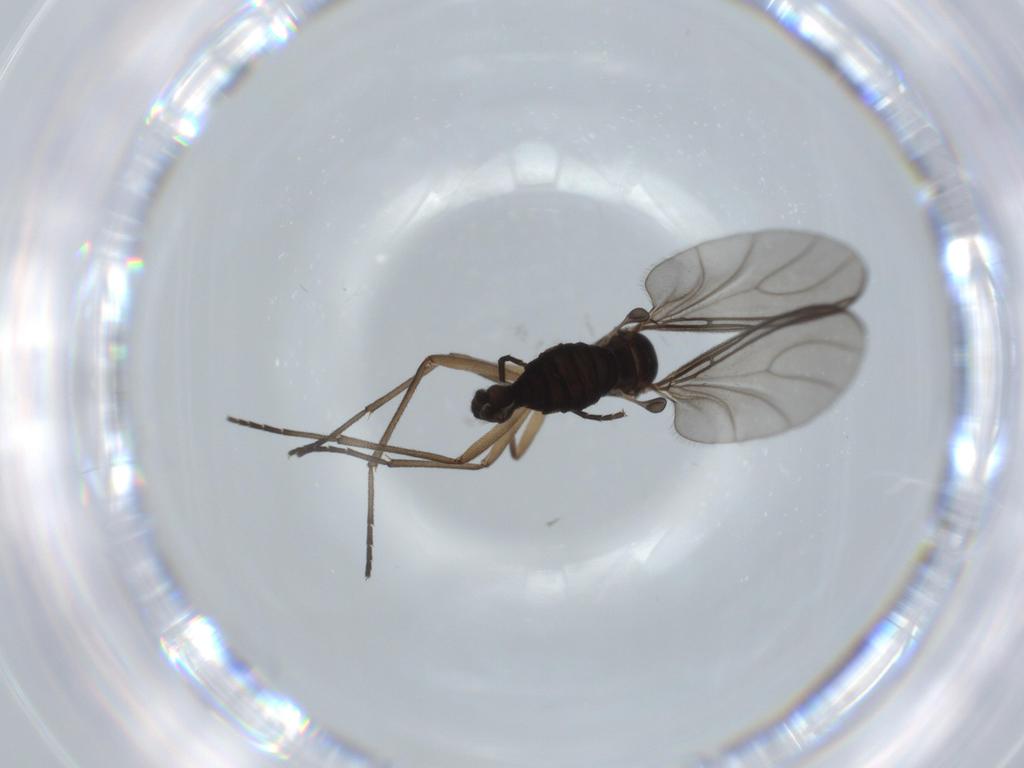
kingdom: Animalia
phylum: Arthropoda
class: Insecta
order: Diptera
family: Sciaridae
